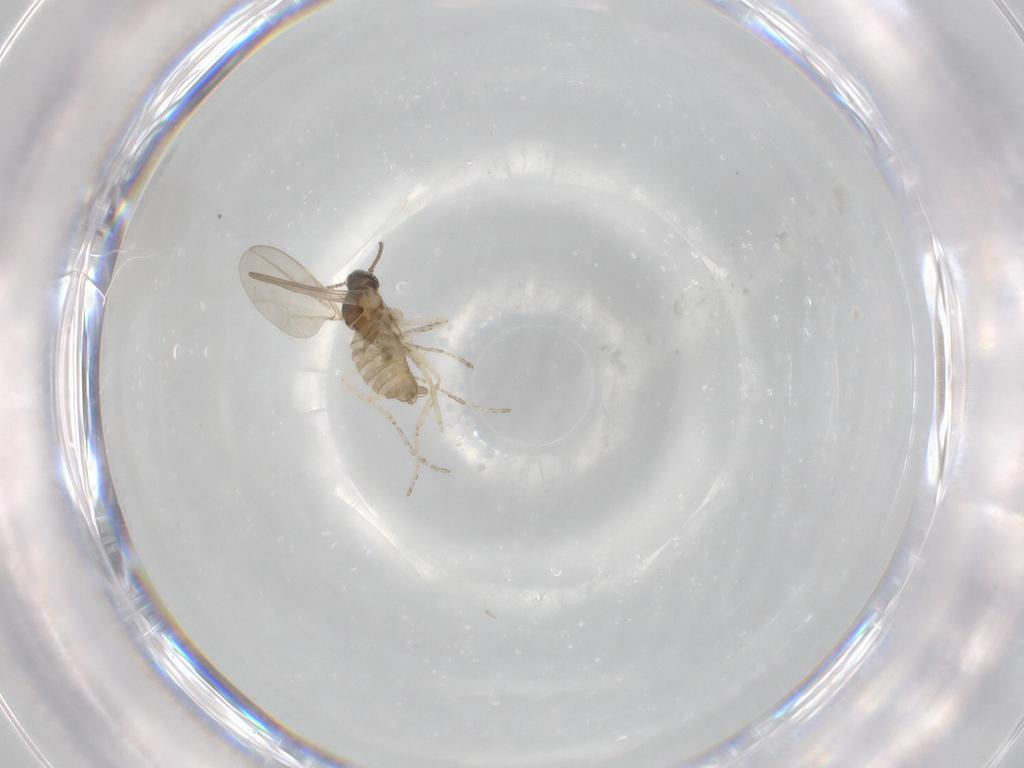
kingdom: Animalia
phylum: Arthropoda
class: Insecta
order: Diptera
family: Cecidomyiidae
